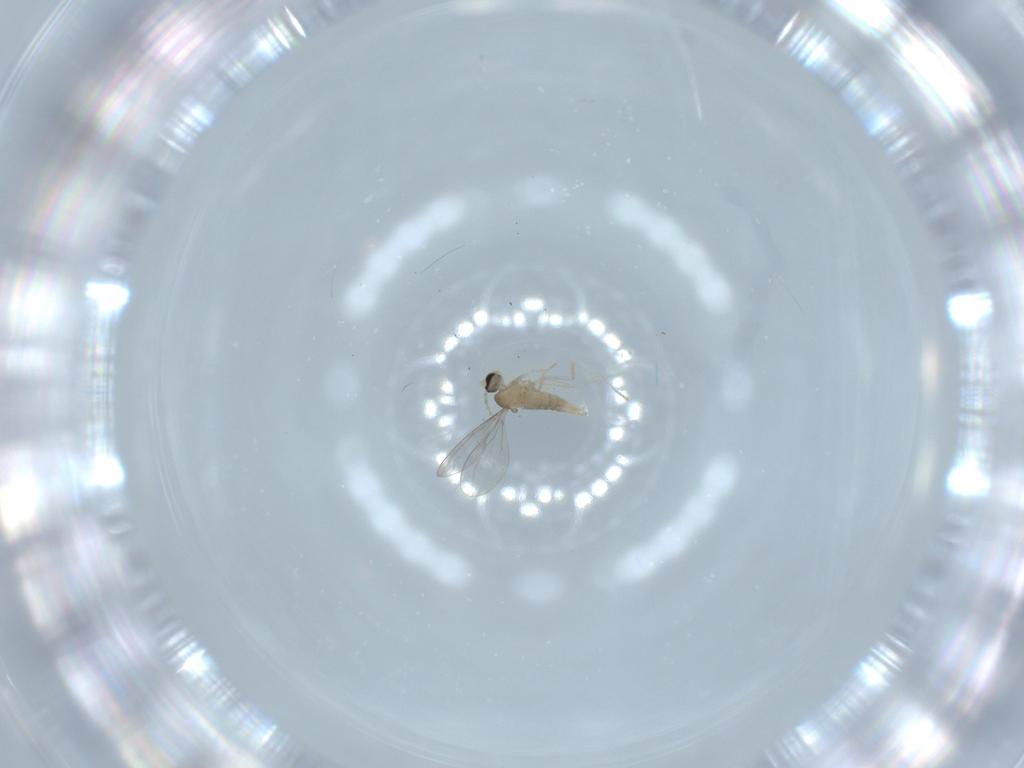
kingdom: Animalia
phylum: Arthropoda
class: Insecta
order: Diptera
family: Cecidomyiidae
